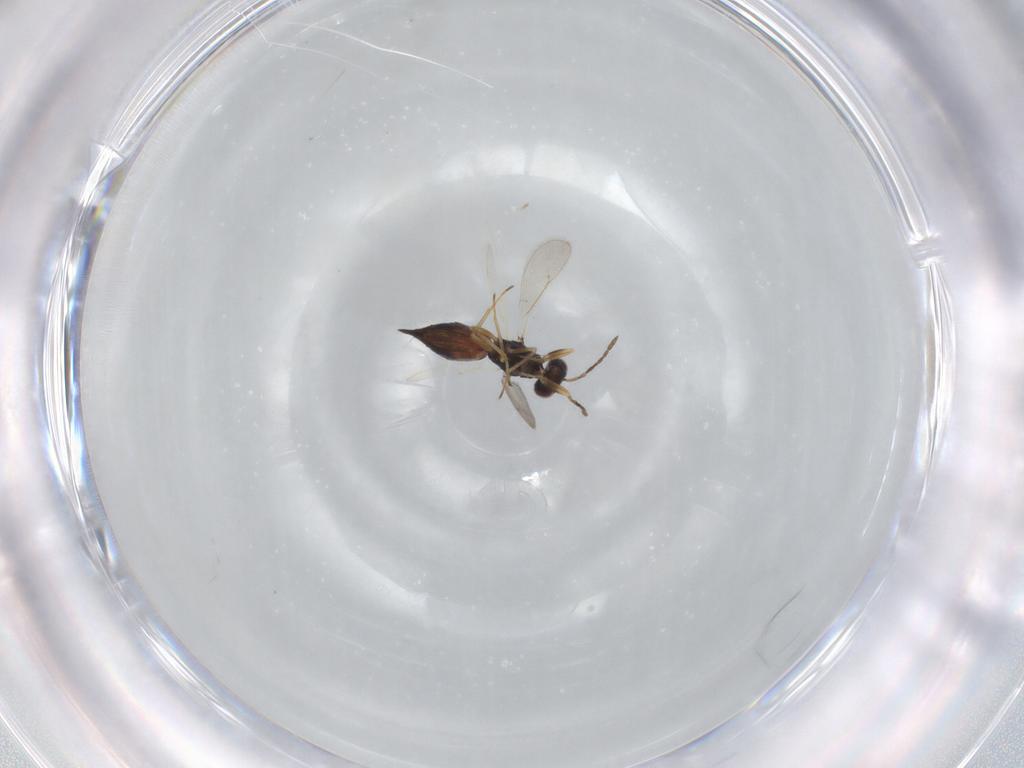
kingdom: Animalia
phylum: Arthropoda
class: Insecta
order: Hymenoptera
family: Eulophidae
